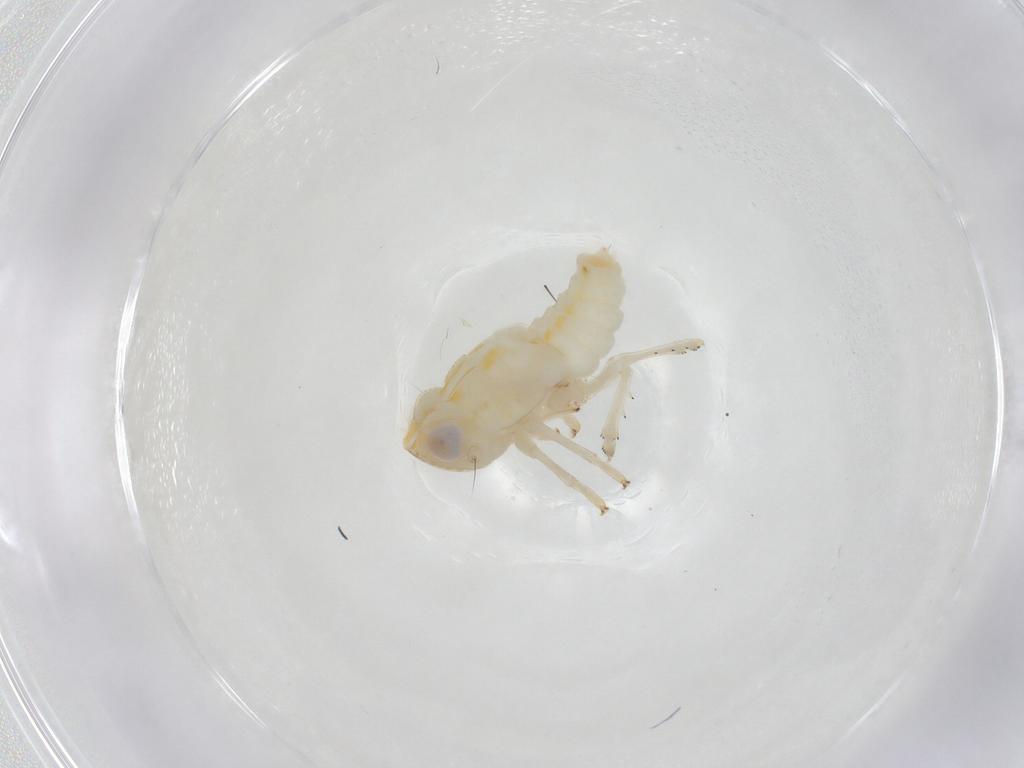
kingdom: Animalia
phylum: Arthropoda
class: Insecta
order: Hemiptera
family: Nogodinidae
